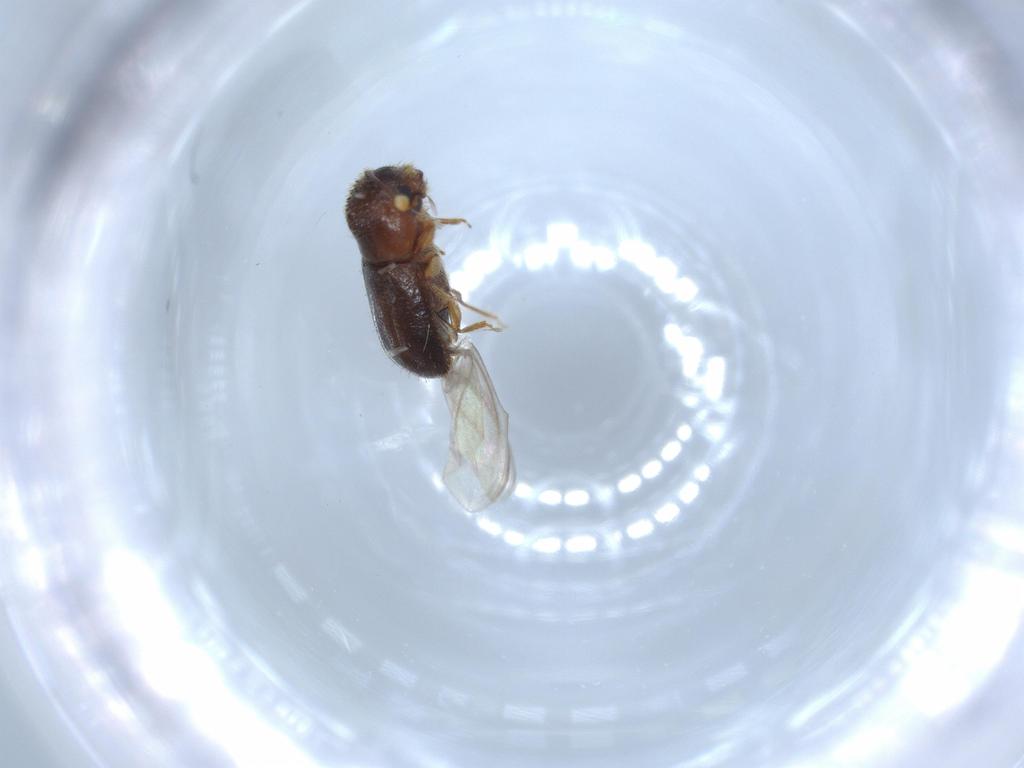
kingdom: Animalia
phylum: Arthropoda
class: Insecta
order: Coleoptera
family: Curculionidae
